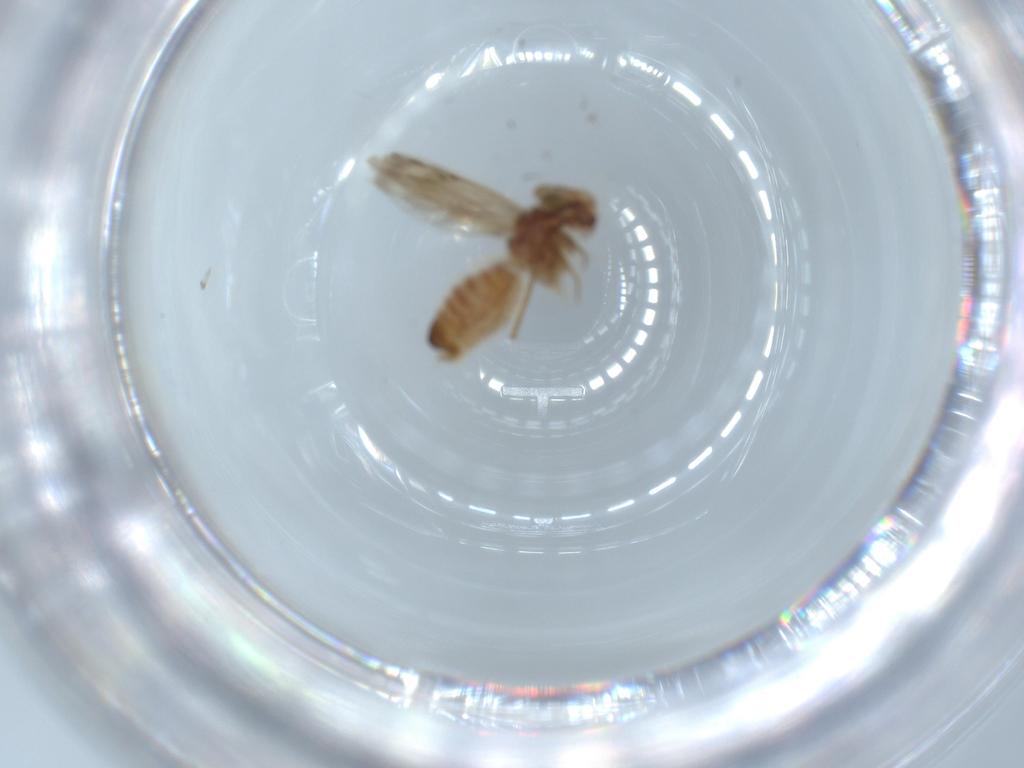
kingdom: Animalia
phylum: Arthropoda
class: Insecta
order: Psocodea
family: Lepidopsocidae
